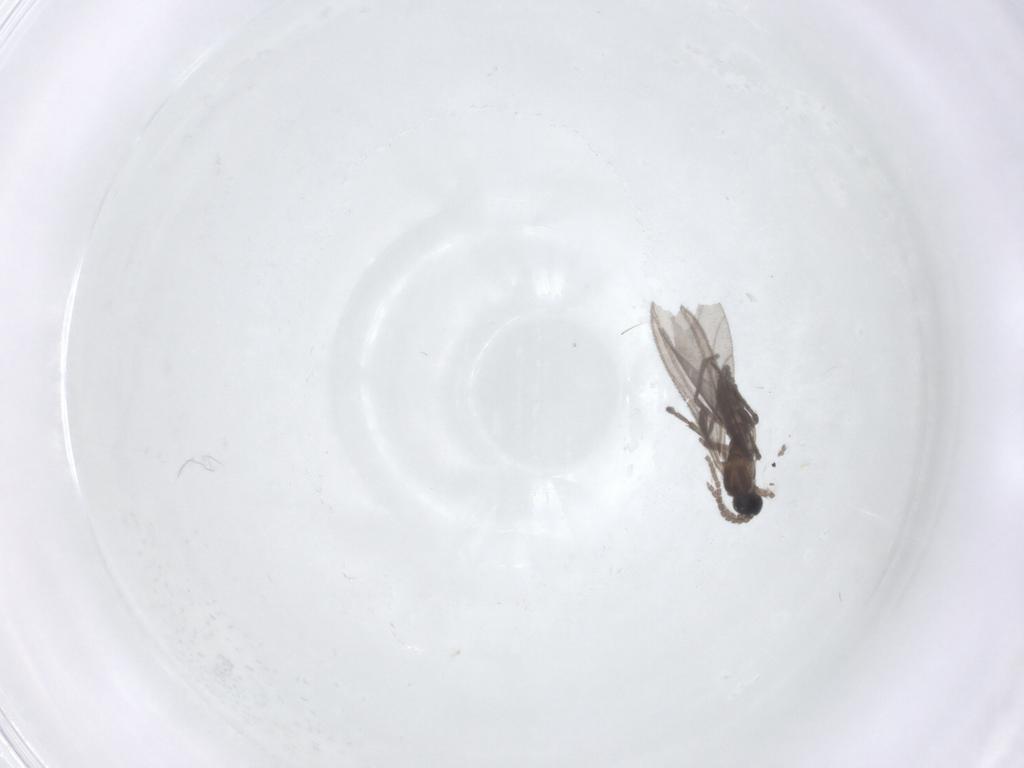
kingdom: Animalia
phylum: Arthropoda
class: Insecta
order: Diptera
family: Sciaridae
